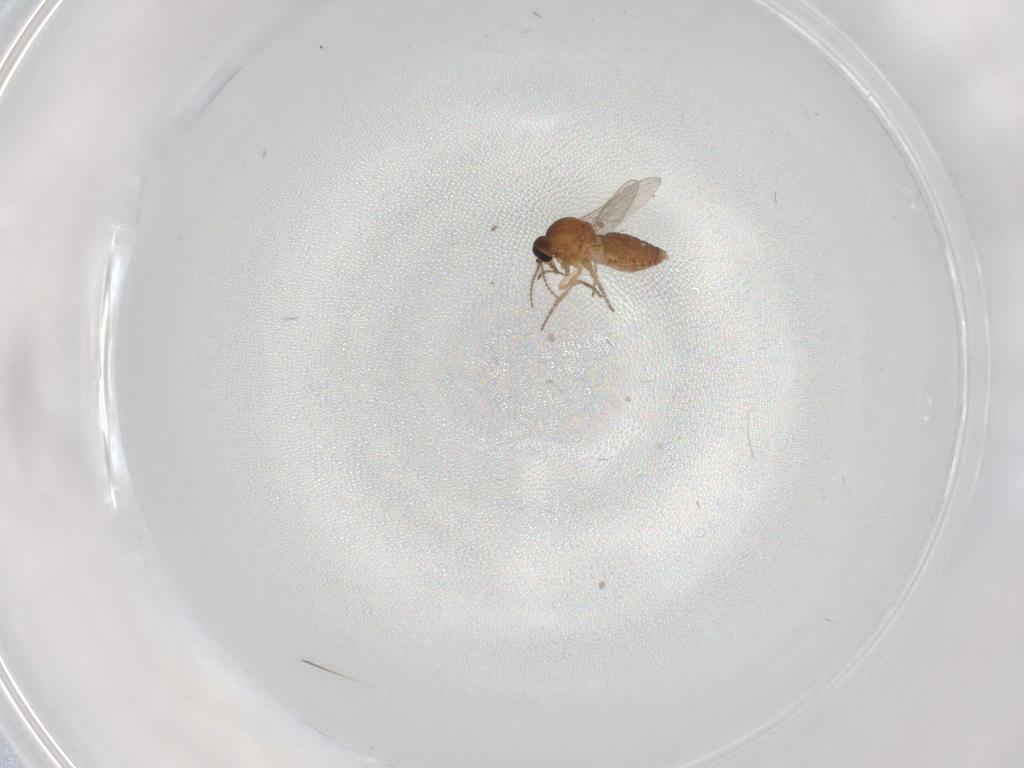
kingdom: Animalia
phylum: Arthropoda
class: Insecta
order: Diptera
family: Ceratopogonidae
